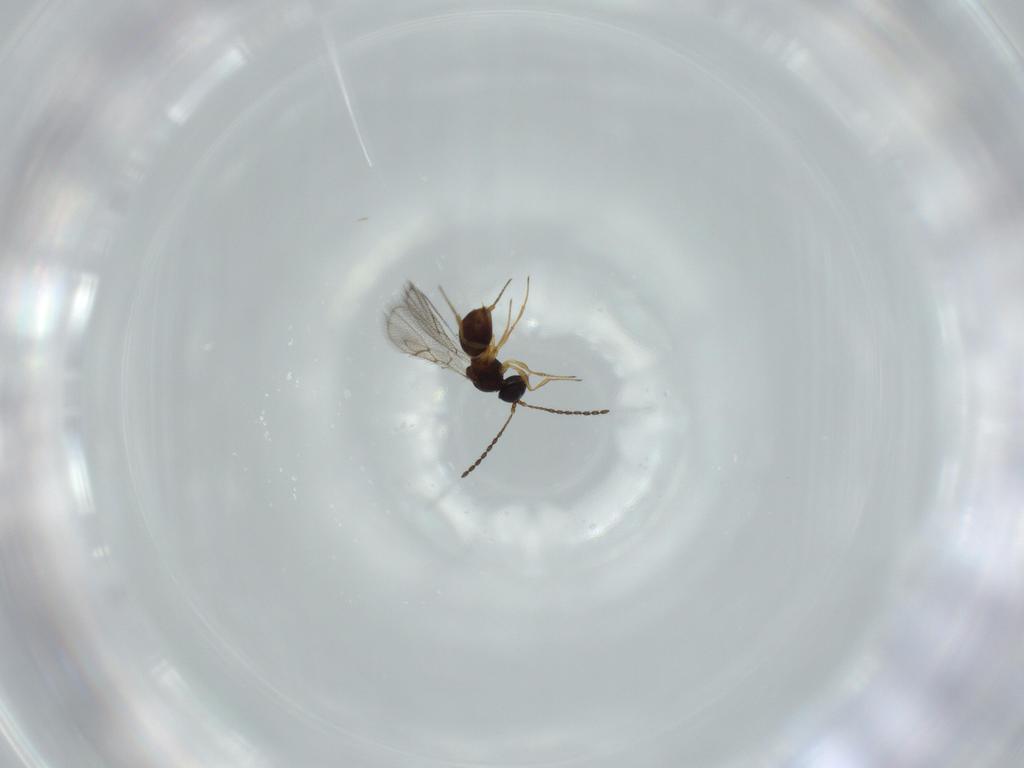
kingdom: Animalia
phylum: Arthropoda
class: Insecta
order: Hymenoptera
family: Figitidae
